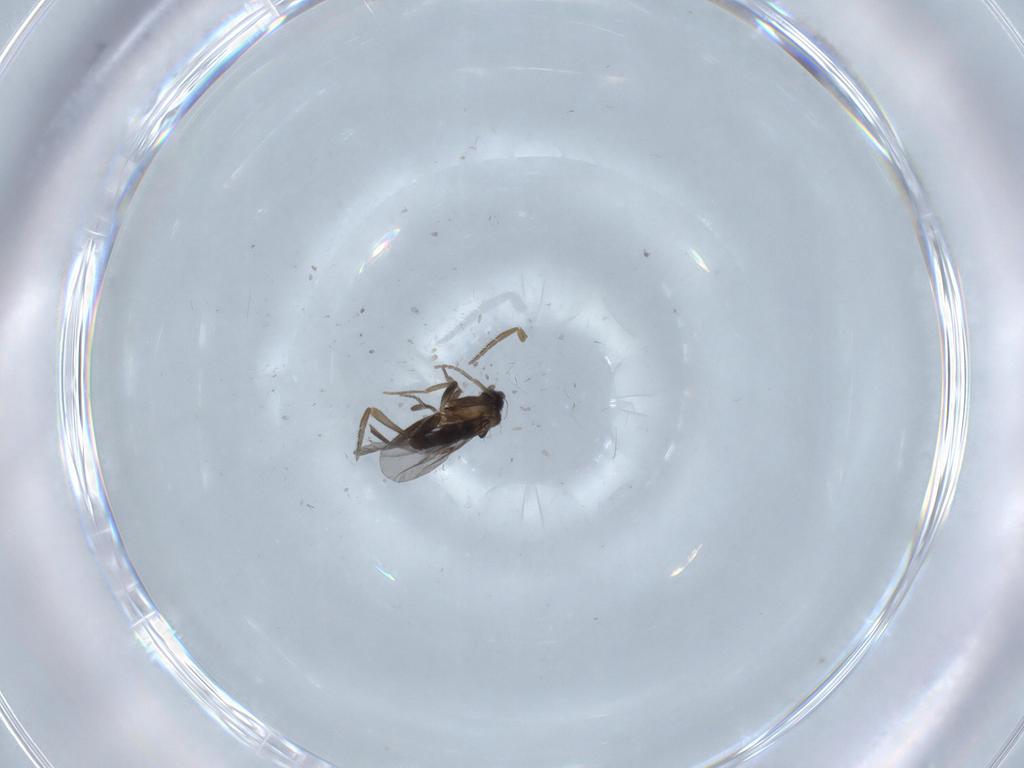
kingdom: Animalia
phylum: Arthropoda
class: Insecta
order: Diptera
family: Phoridae
